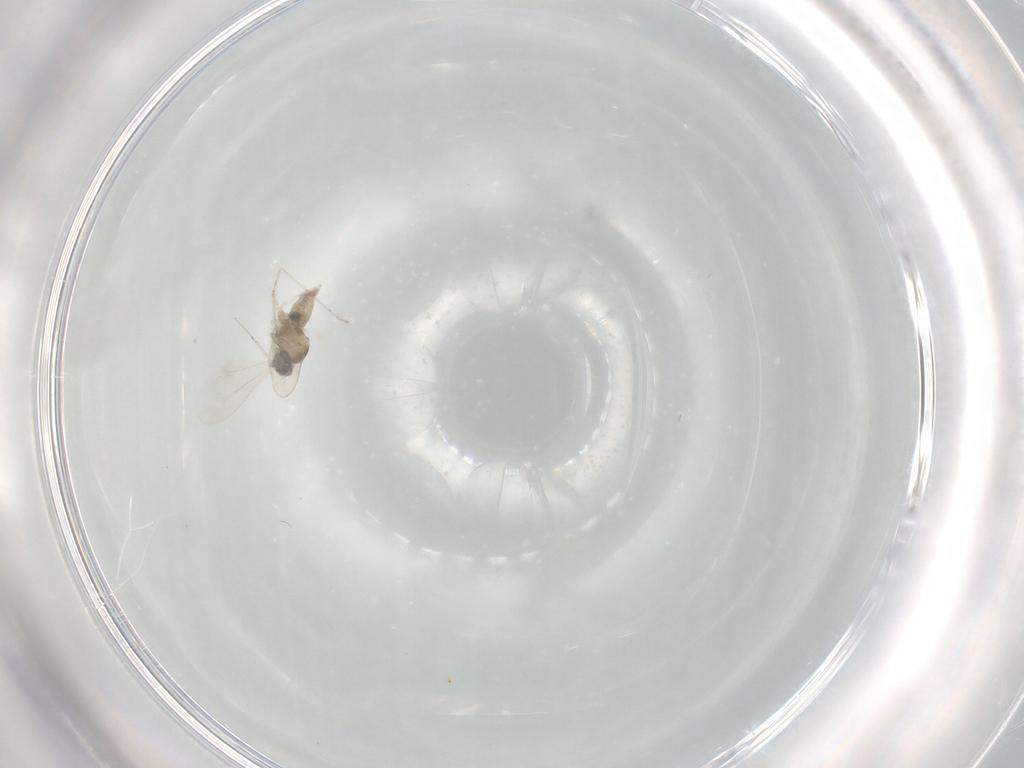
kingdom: Animalia
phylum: Arthropoda
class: Insecta
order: Diptera
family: Cecidomyiidae
